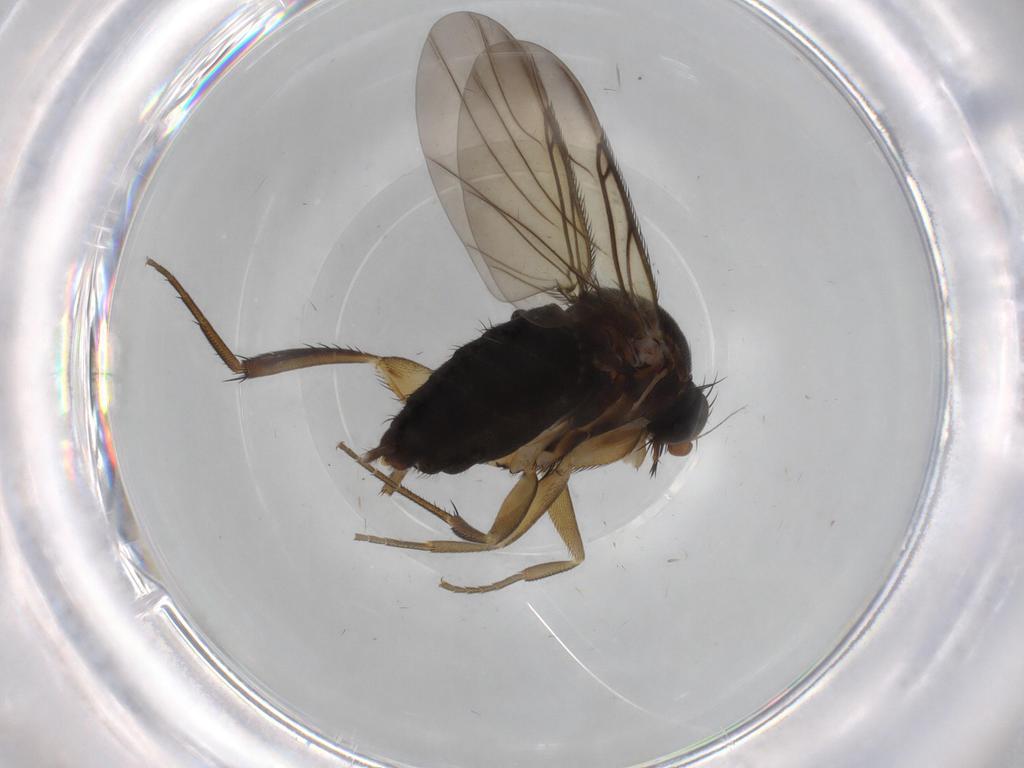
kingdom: Animalia
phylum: Arthropoda
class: Insecta
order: Diptera
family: Phoridae
